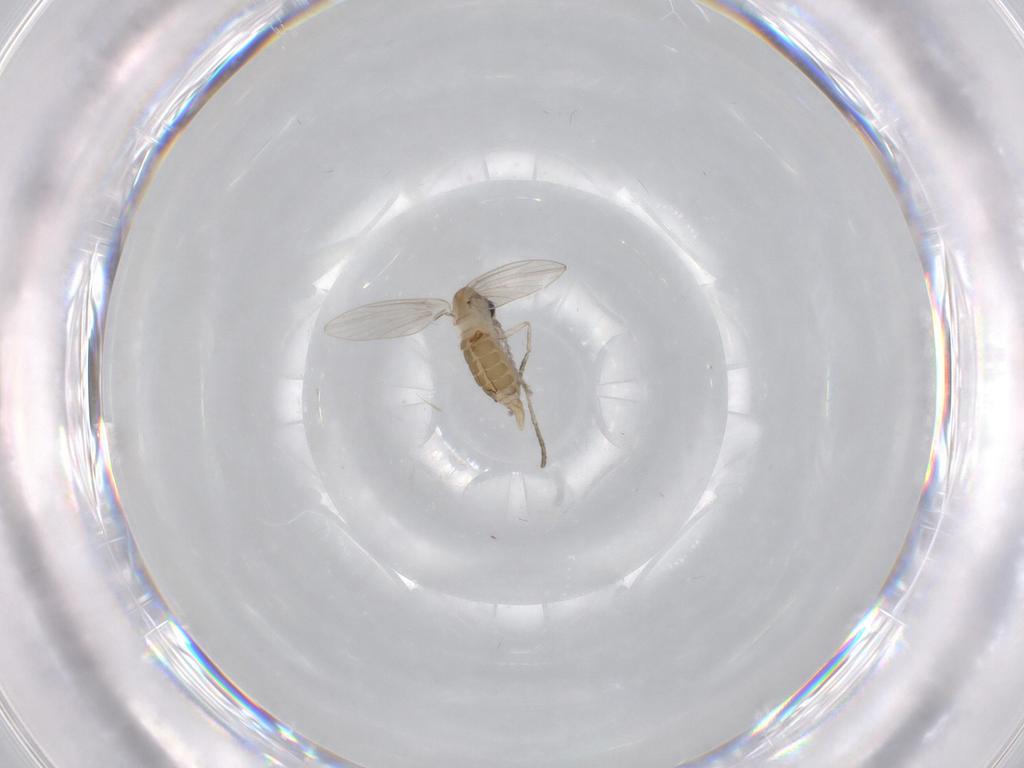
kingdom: Animalia
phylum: Arthropoda
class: Insecta
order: Diptera
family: Psychodidae
